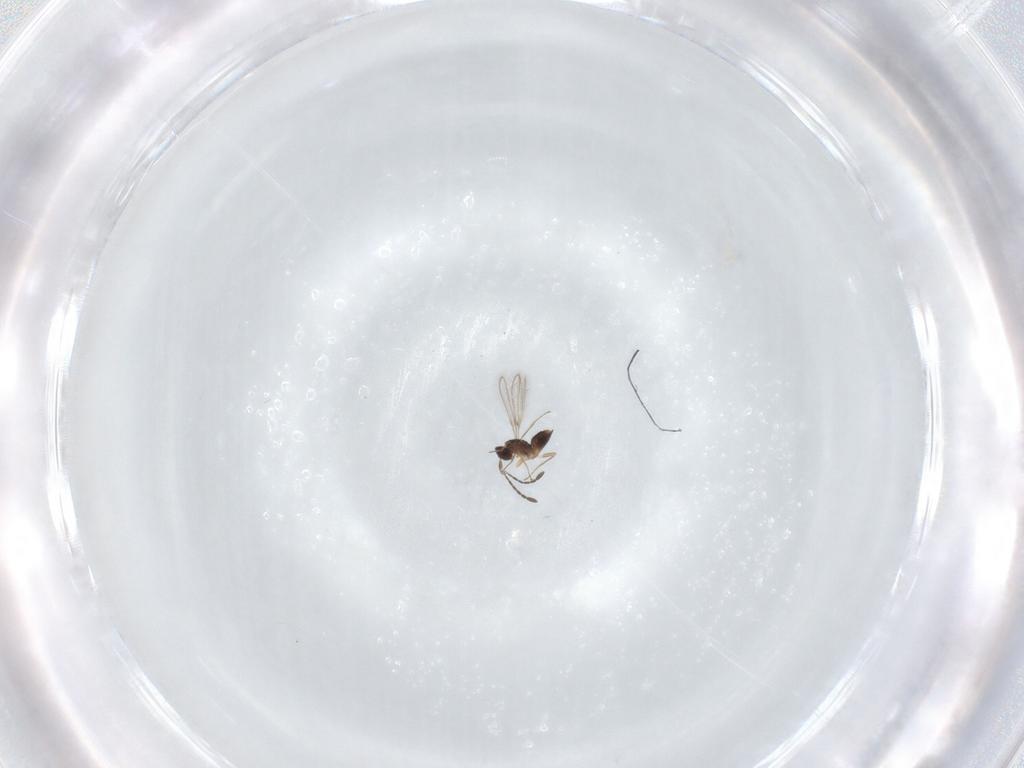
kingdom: Animalia
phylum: Arthropoda
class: Insecta
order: Hymenoptera
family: Mymaridae
